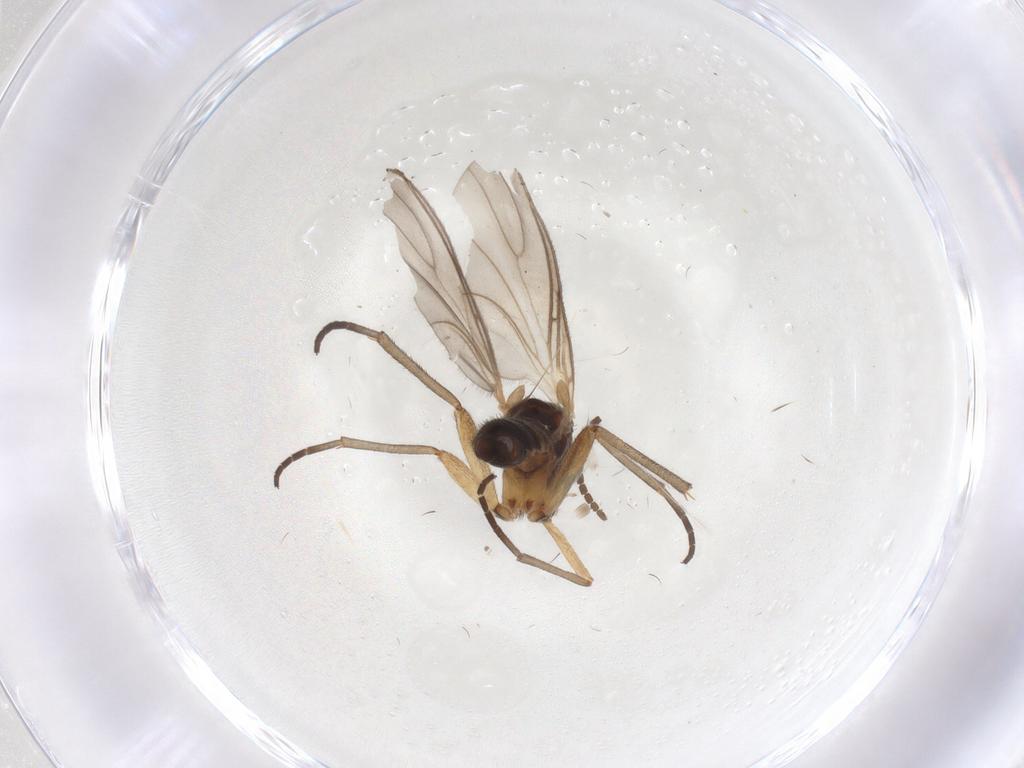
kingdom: Animalia
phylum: Arthropoda
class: Insecta
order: Diptera
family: Sciaridae
